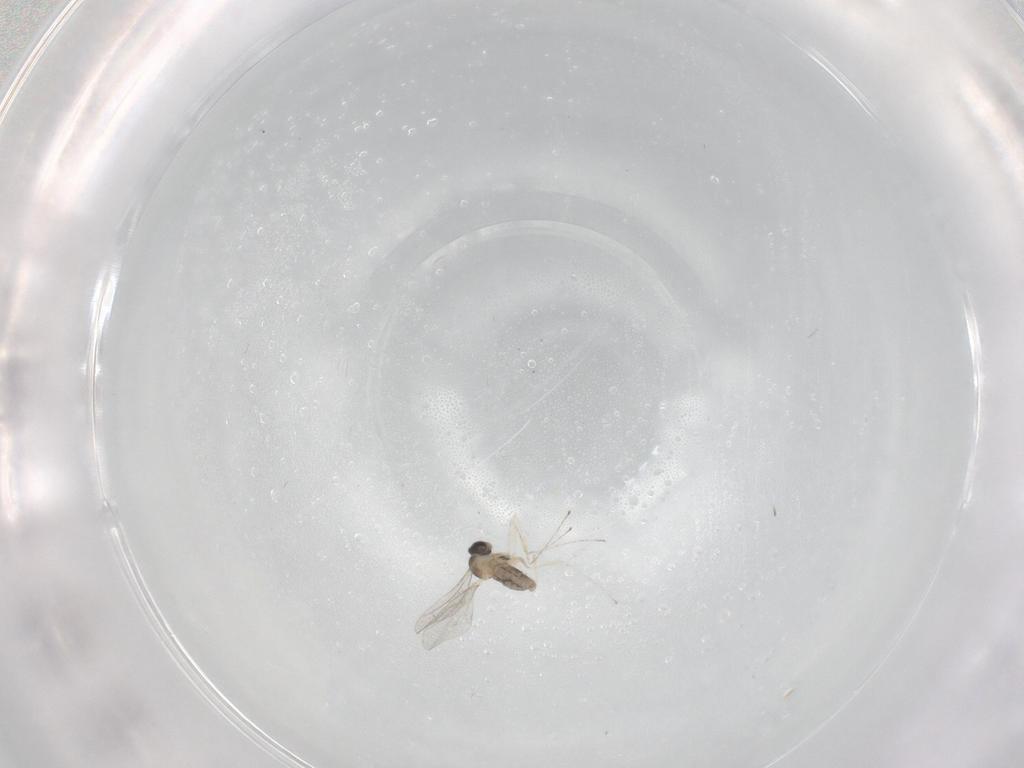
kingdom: Animalia
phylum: Arthropoda
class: Insecta
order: Diptera
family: Cecidomyiidae
